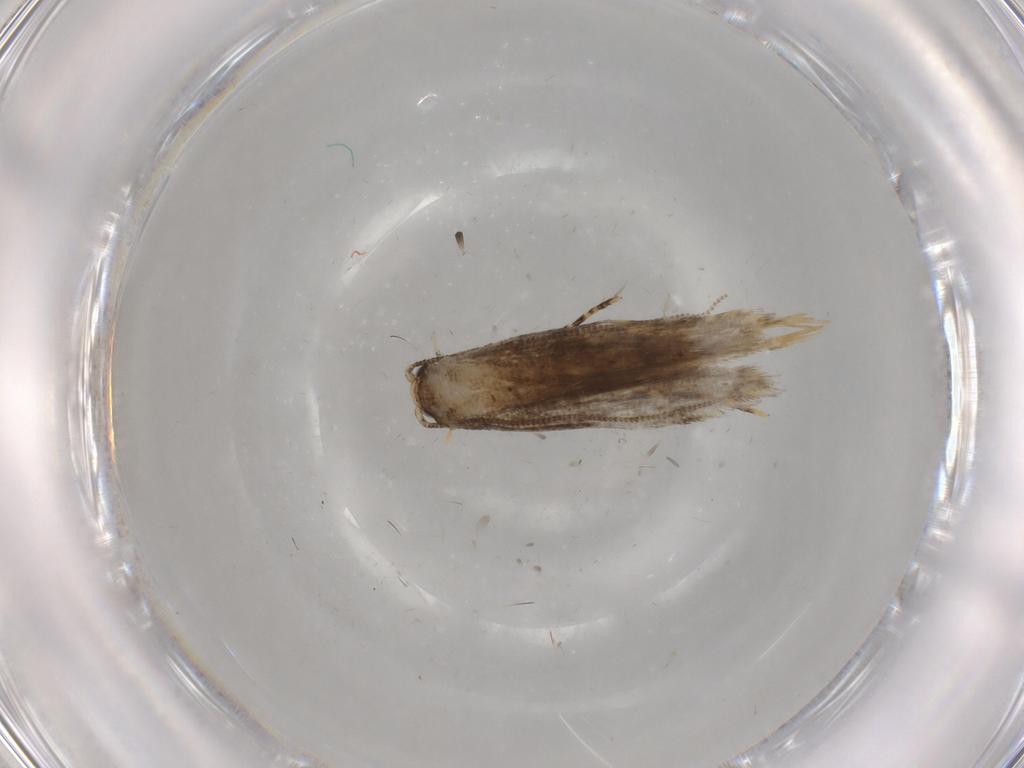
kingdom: Animalia
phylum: Arthropoda
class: Insecta
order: Lepidoptera
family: Tineidae
